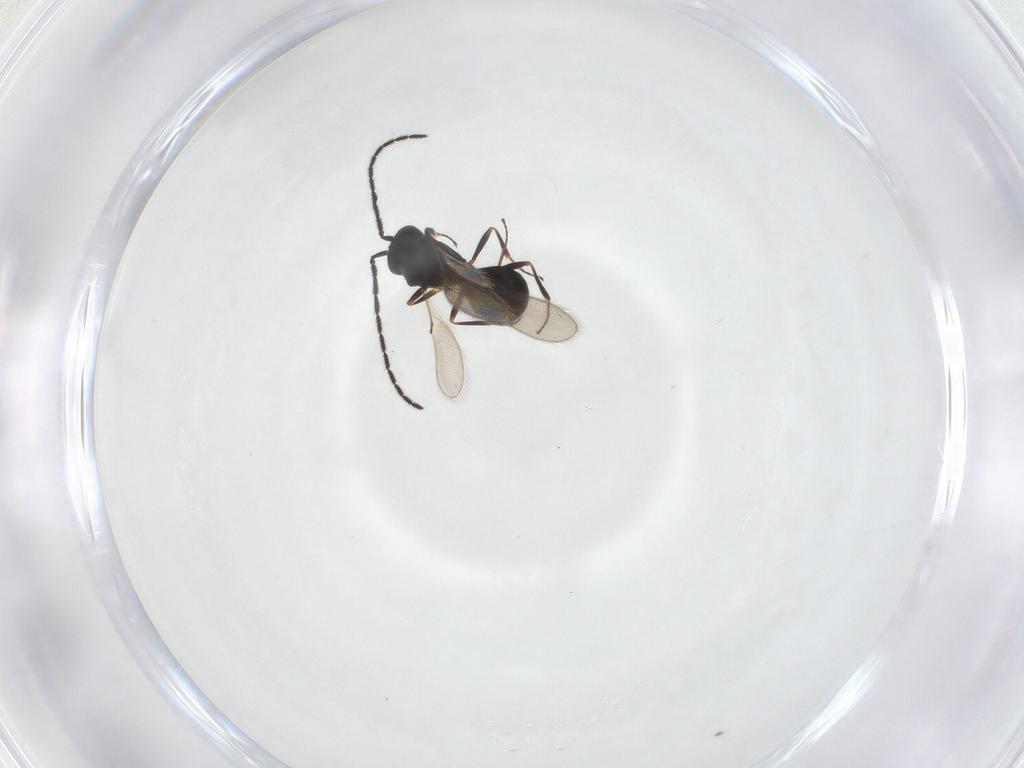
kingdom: Animalia
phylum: Arthropoda
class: Insecta
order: Hymenoptera
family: Scelionidae
